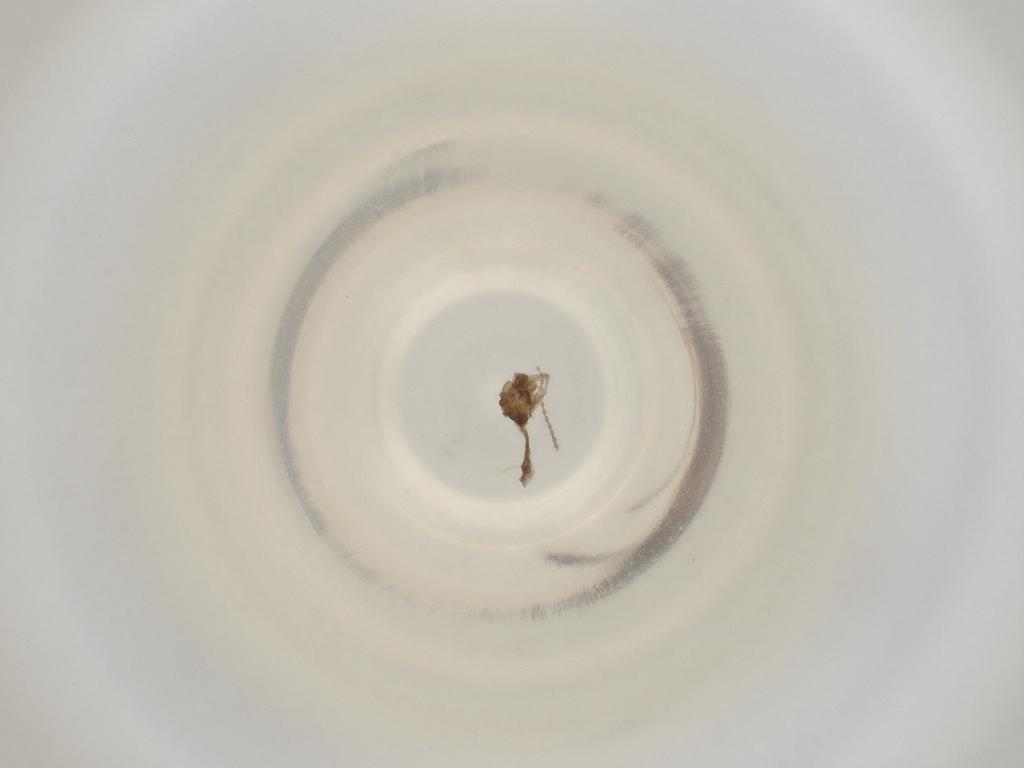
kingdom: Animalia
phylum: Arthropoda
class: Insecta
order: Diptera
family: Cecidomyiidae
